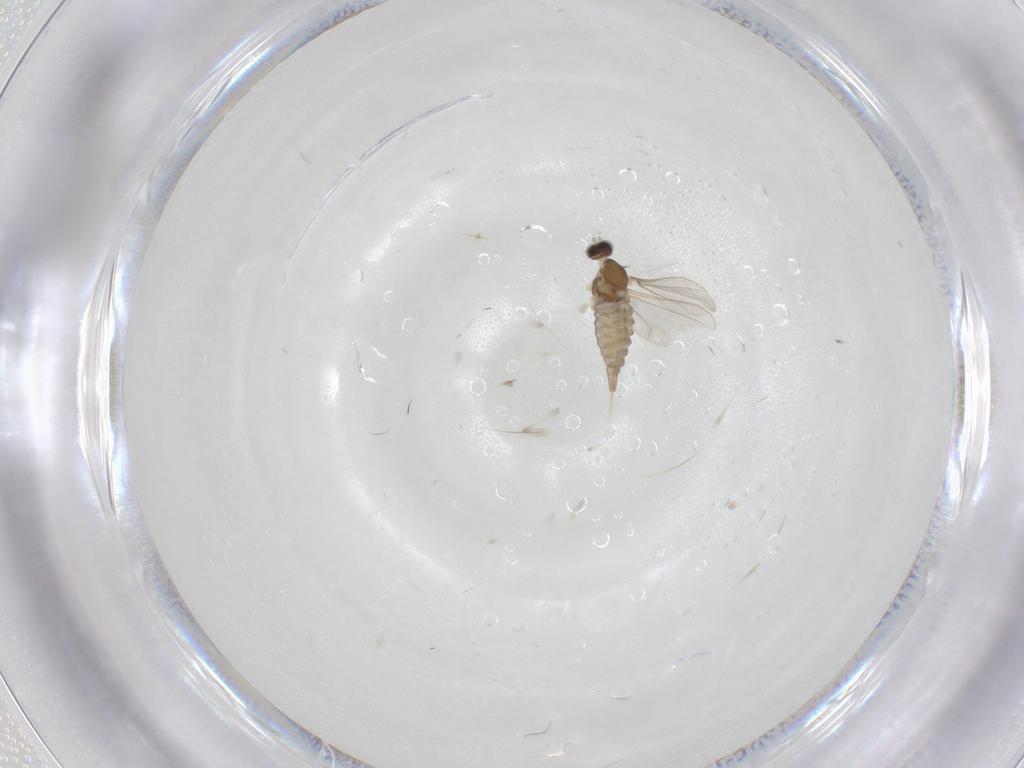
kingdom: Animalia
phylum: Arthropoda
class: Insecta
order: Diptera
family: Cecidomyiidae
